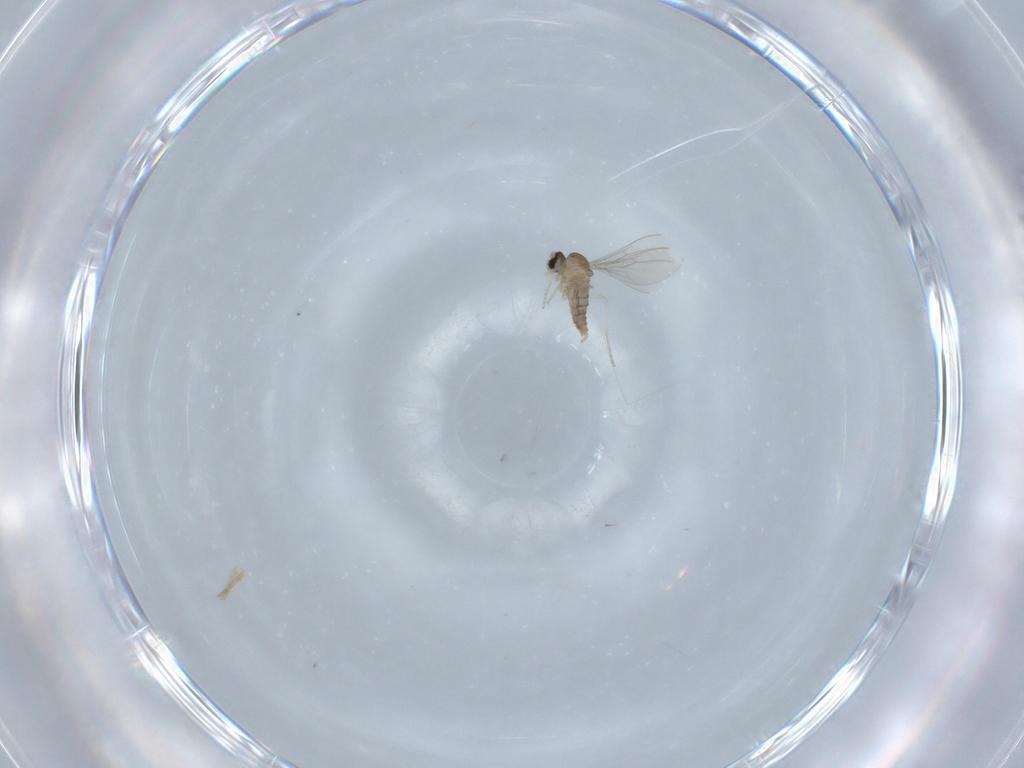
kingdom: Animalia
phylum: Arthropoda
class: Insecta
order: Diptera
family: Cecidomyiidae
